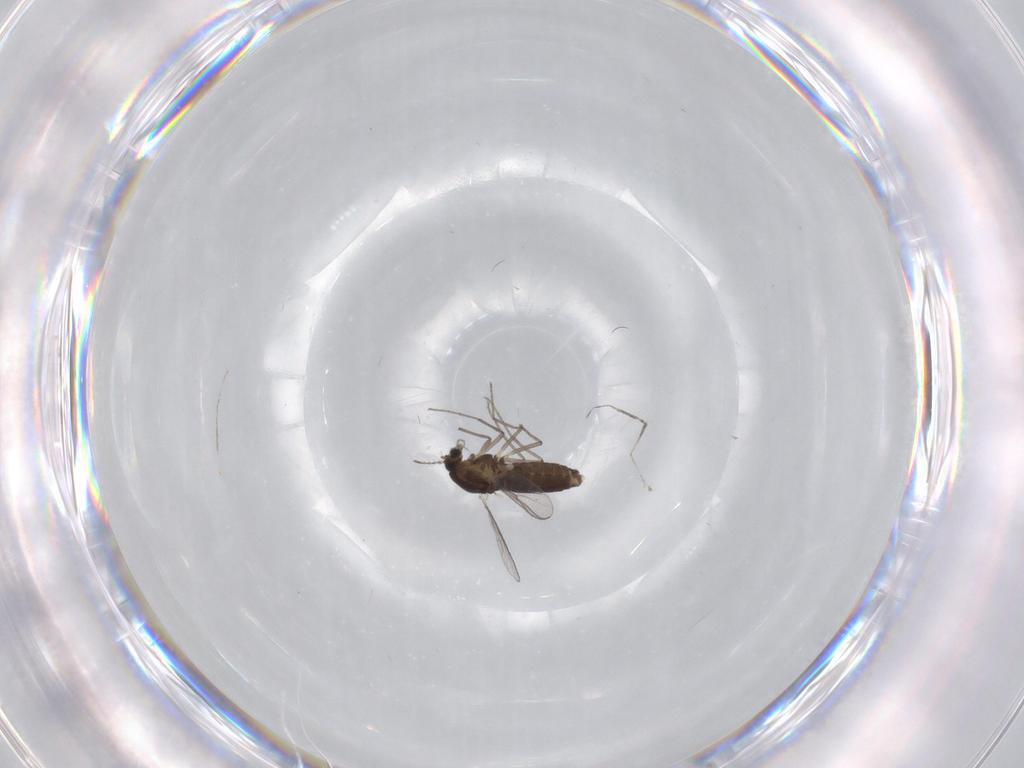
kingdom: Animalia
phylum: Arthropoda
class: Insecta
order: Diptera
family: Chironomidae
